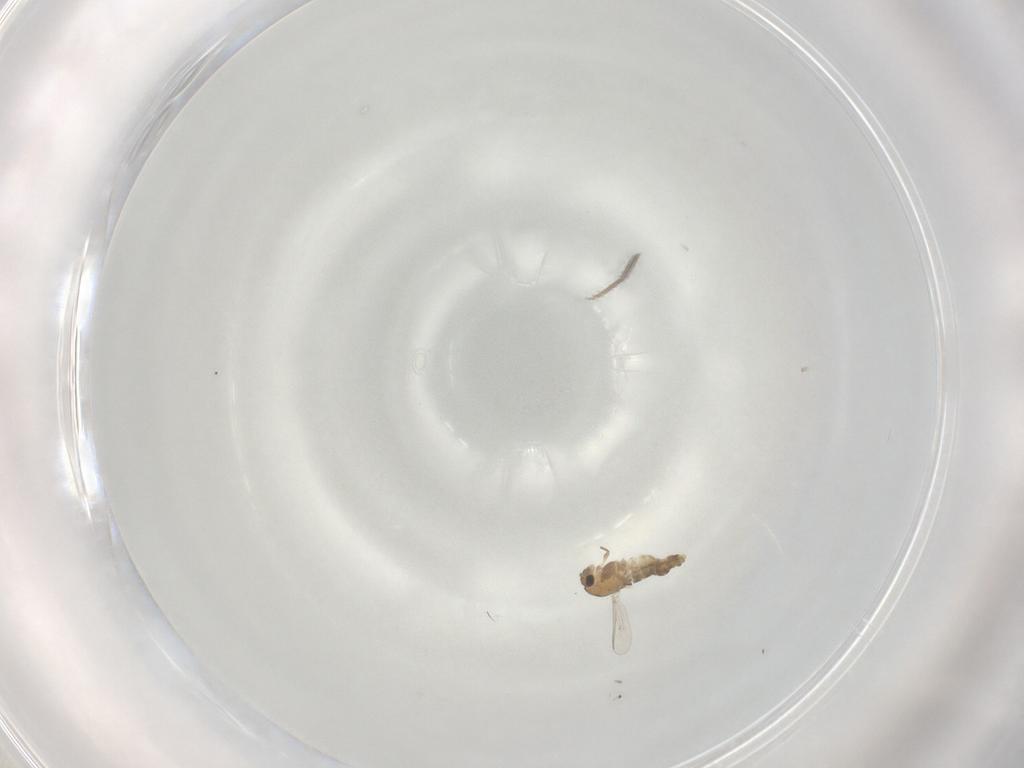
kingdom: Animalia
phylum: Arthropoda
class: Insecta
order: Diptera
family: Chironomidae
